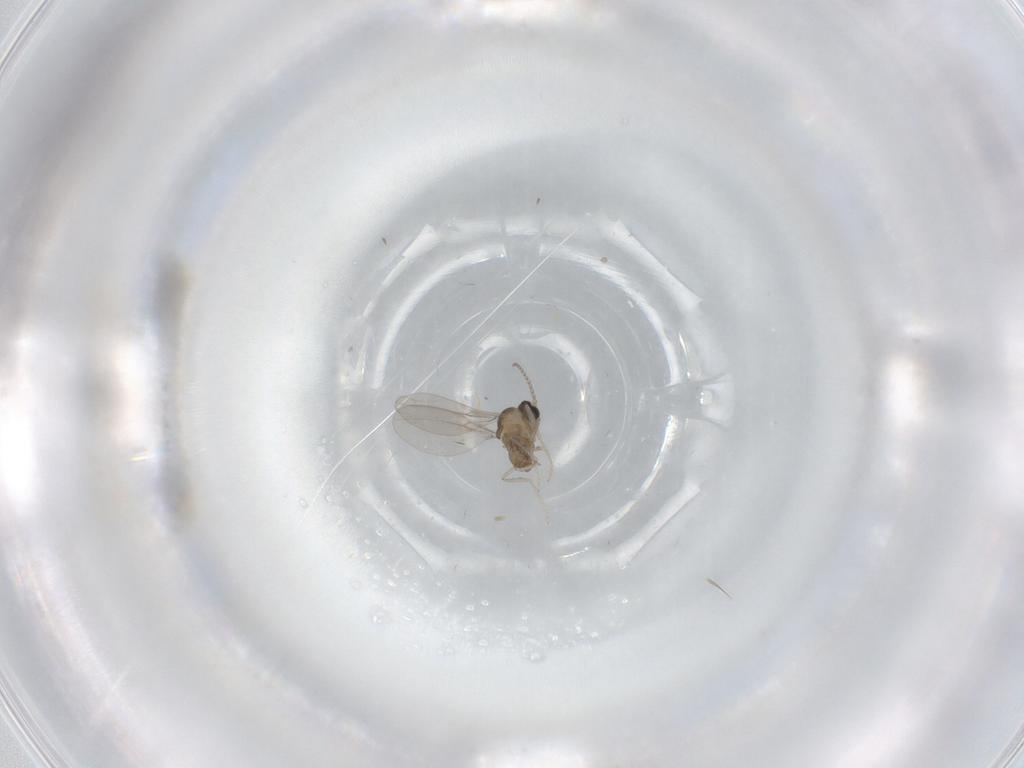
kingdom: Animalia
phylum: Arthropoda
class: Insecta
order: Diptera
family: Cecidomyiidae
